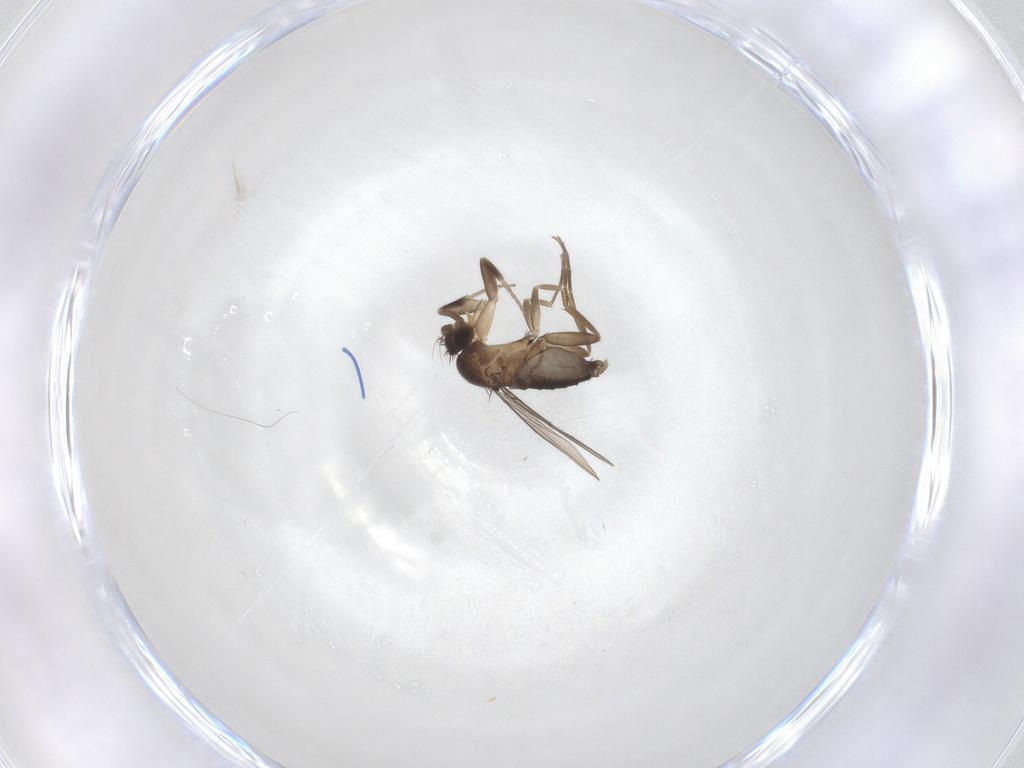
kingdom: Animalia
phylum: Arthropoda
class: Insecta
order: Diptera
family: Phoridae
